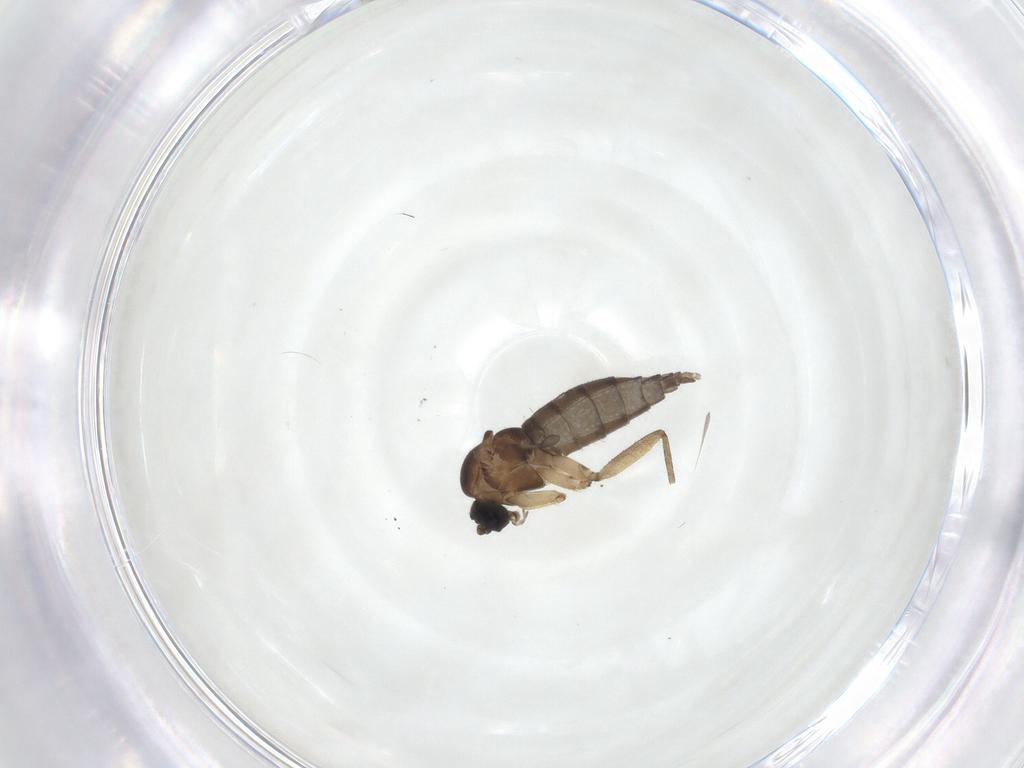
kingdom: Animalia
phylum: Arthropoda
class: Insecta
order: Diptera
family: Sciaridae
